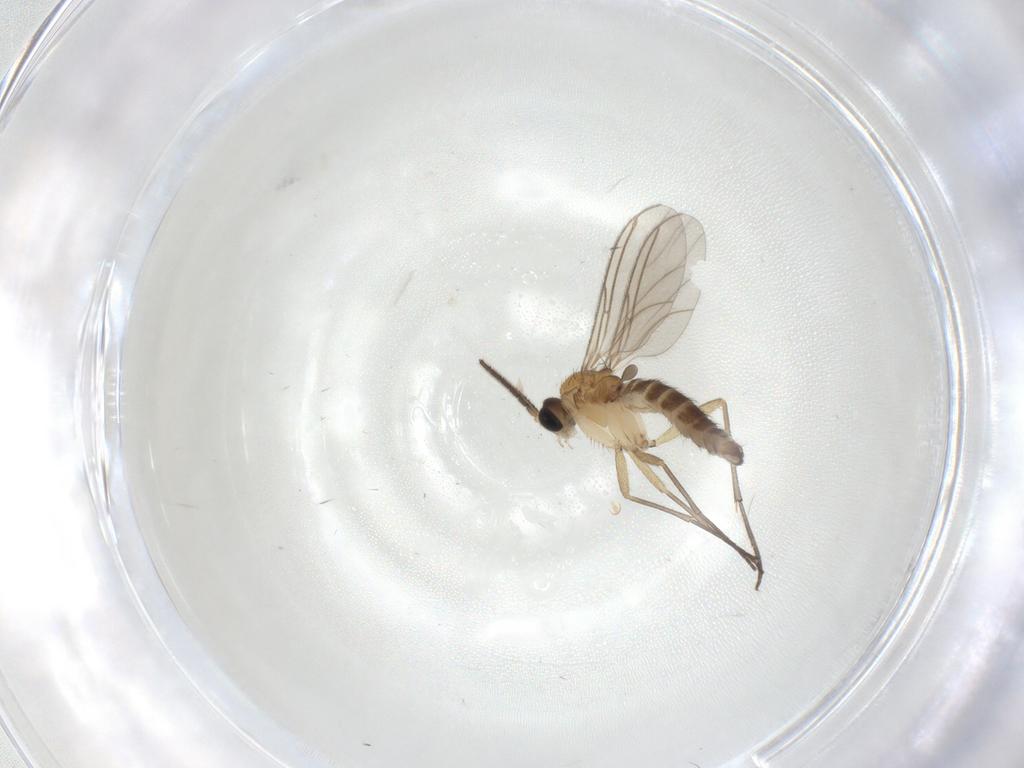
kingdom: Animalia
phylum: Arthropoda
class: Insecta
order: Diptera
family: Sciaridae
